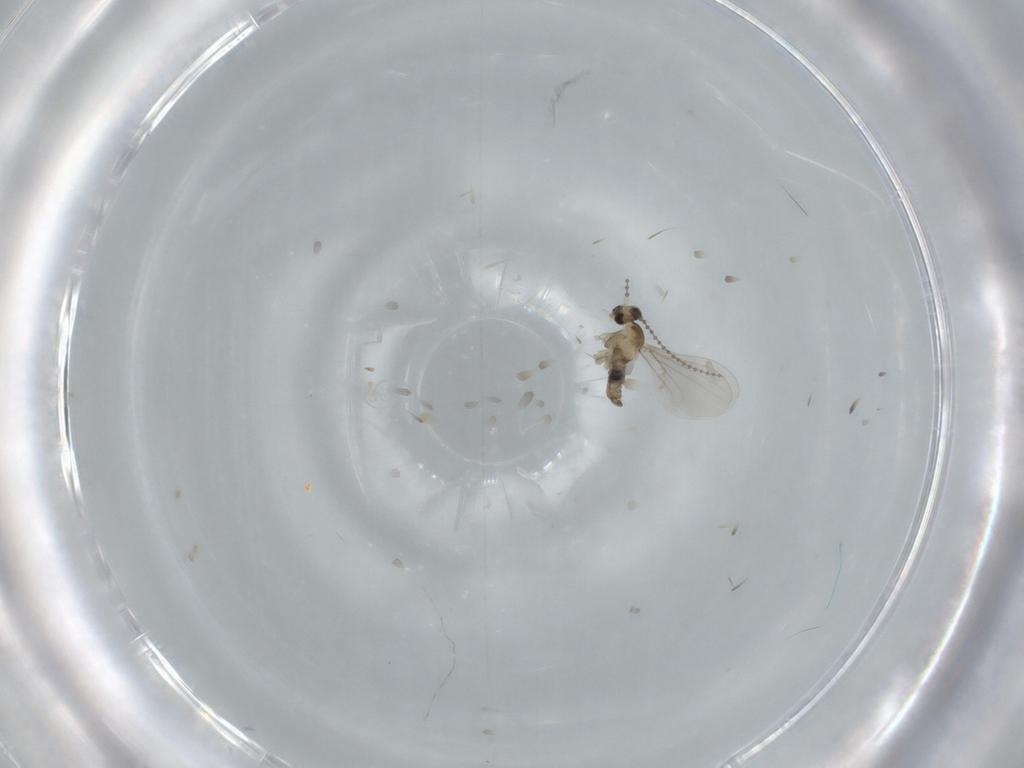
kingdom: Animalia
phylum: Arthropoda
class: Insecta
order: Diptera
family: Cecidomyiidae
